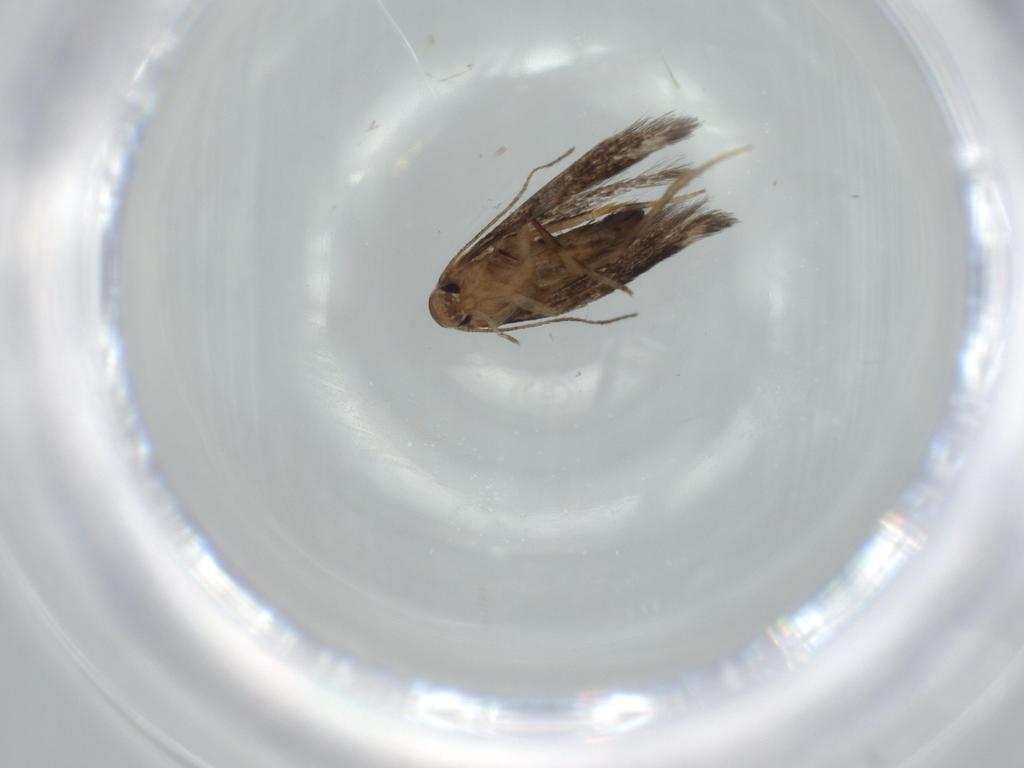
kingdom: Animalia
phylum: Arthropoda
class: Insecta
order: Lepidoptera
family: Cosmopterigidae
